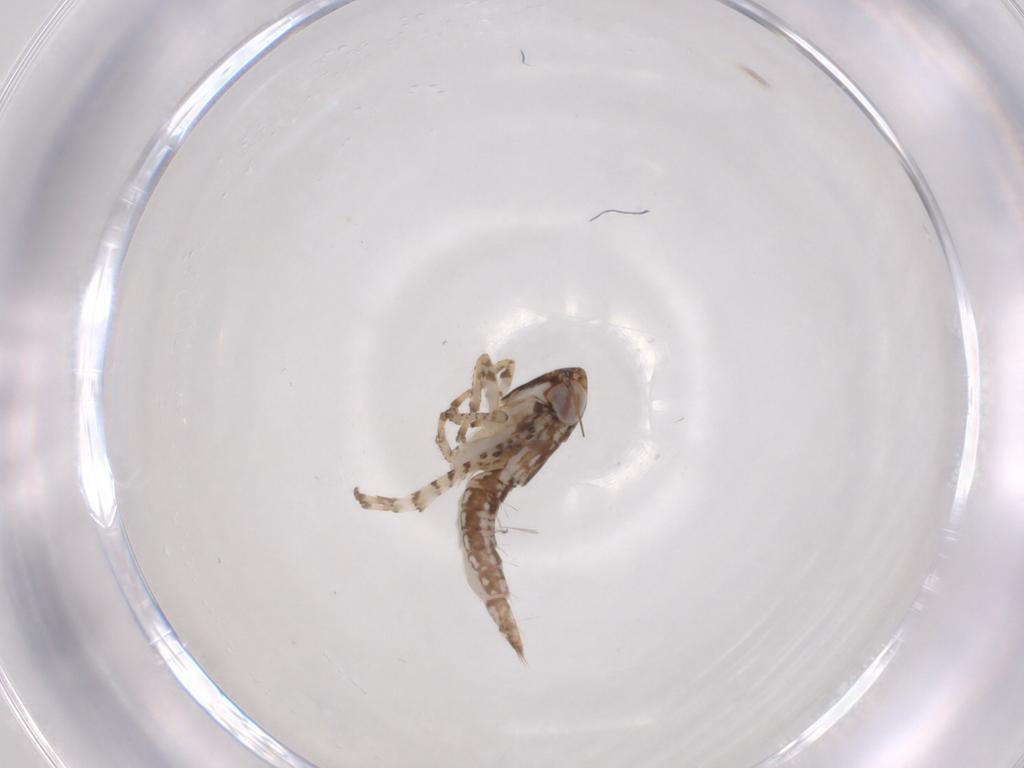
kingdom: Animalia
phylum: Arthropoda
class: Insecta
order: Hemiptera
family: Cicadellidae
